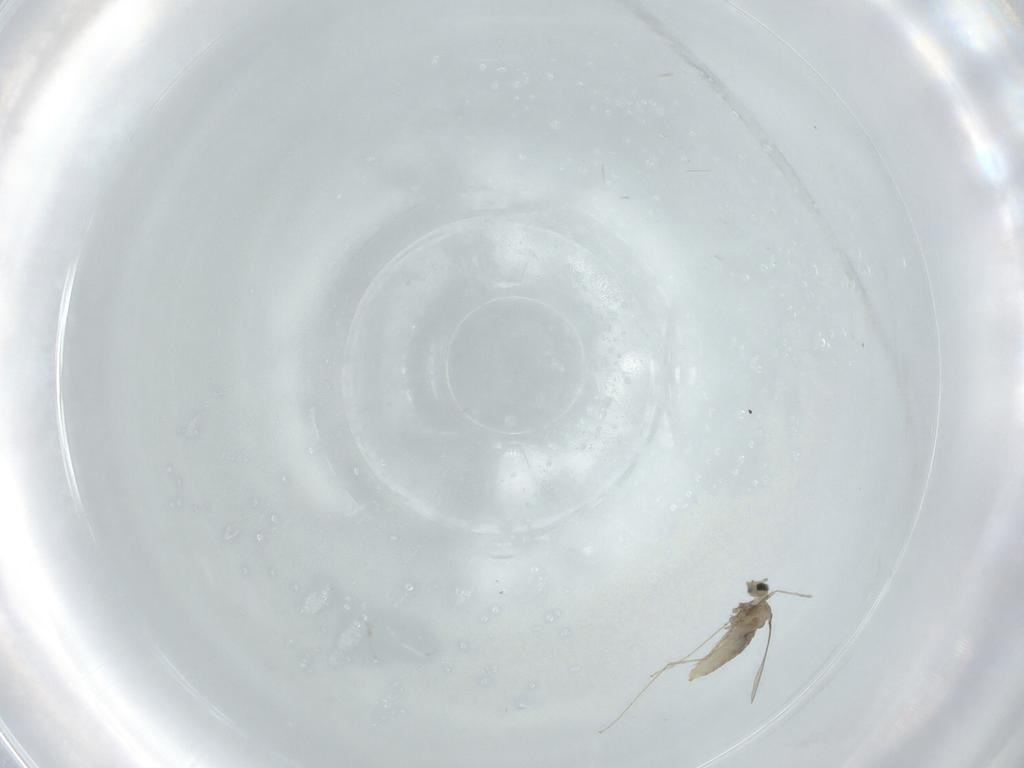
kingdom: Animalia
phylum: Arthropoda
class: Insecta
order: Diptera
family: Cecidomyiidae
